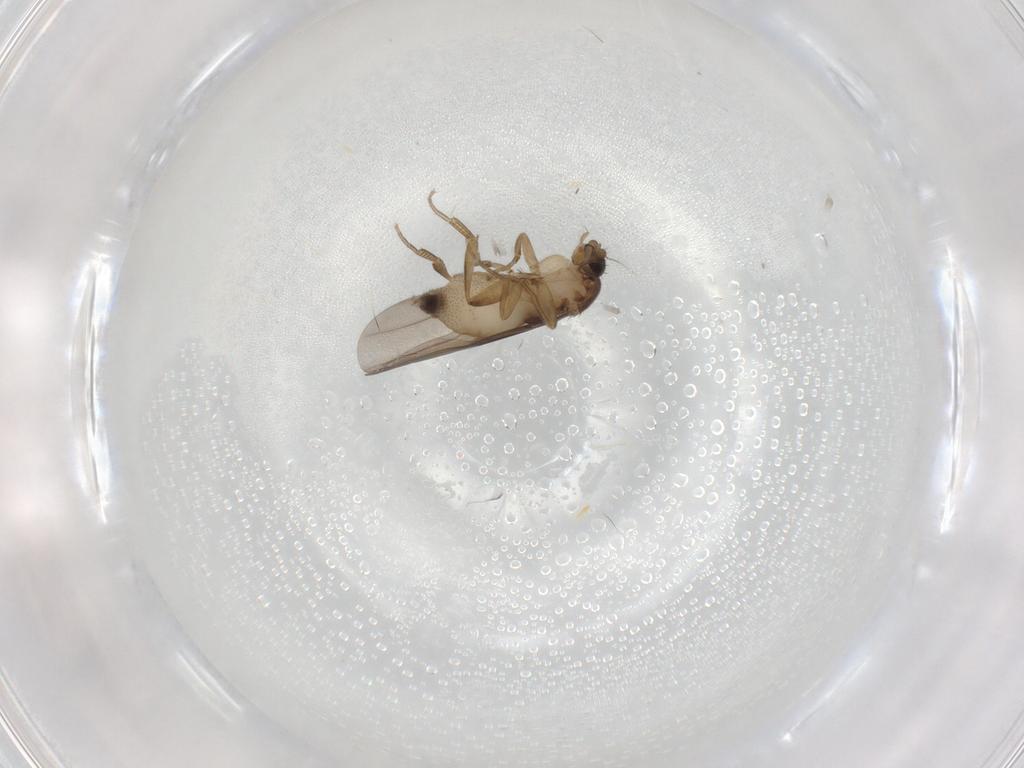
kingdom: Animalia
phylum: Arthropoda
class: Insecta
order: Diptera
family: Phoridae
